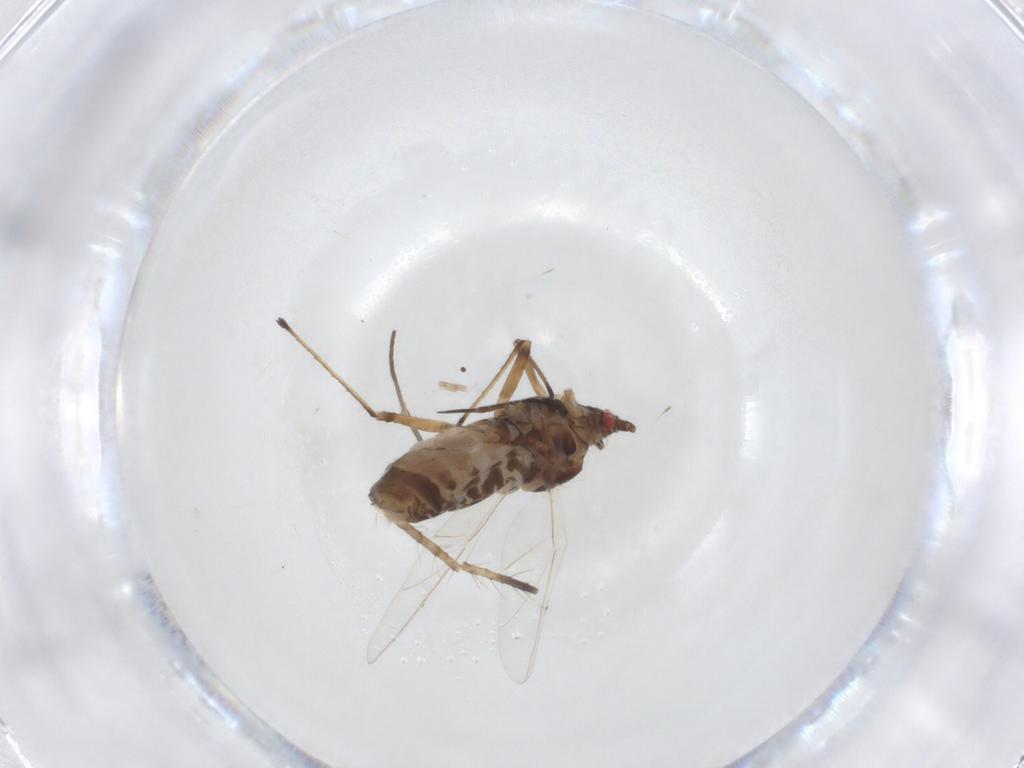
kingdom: Animalia
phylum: Arthropoda
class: Insecta
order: Hemiptera
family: Aphididae
